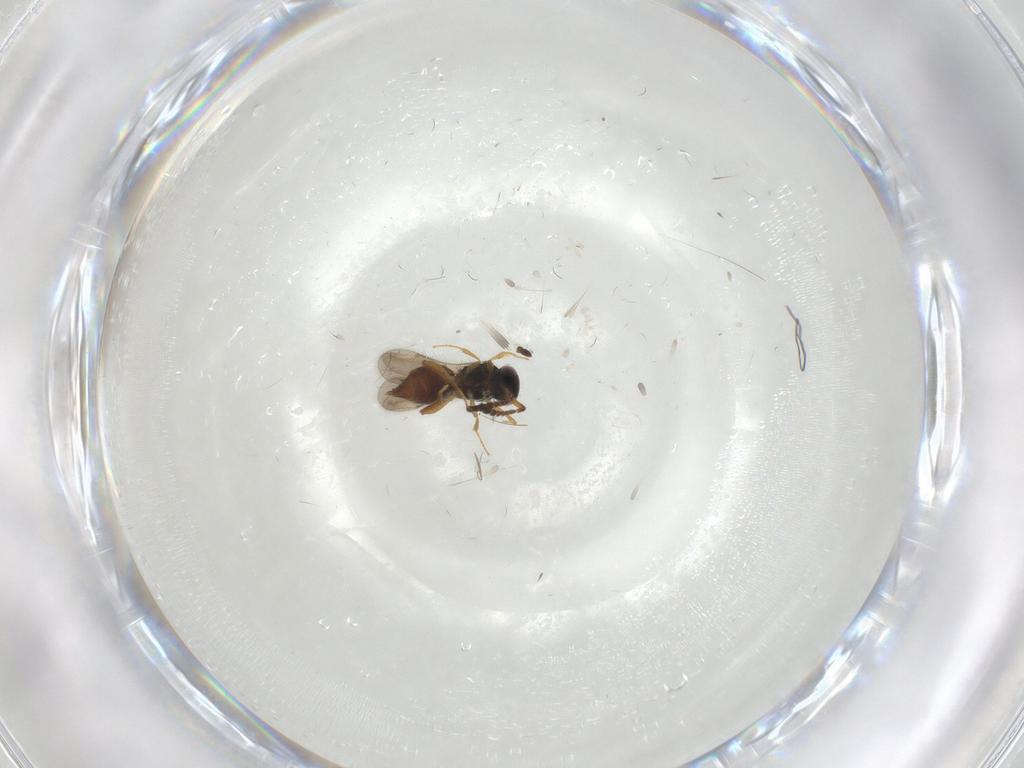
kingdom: Animalia
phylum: Arthropoda
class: Insecta
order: Hymenoptera
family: Ceraphronidae
